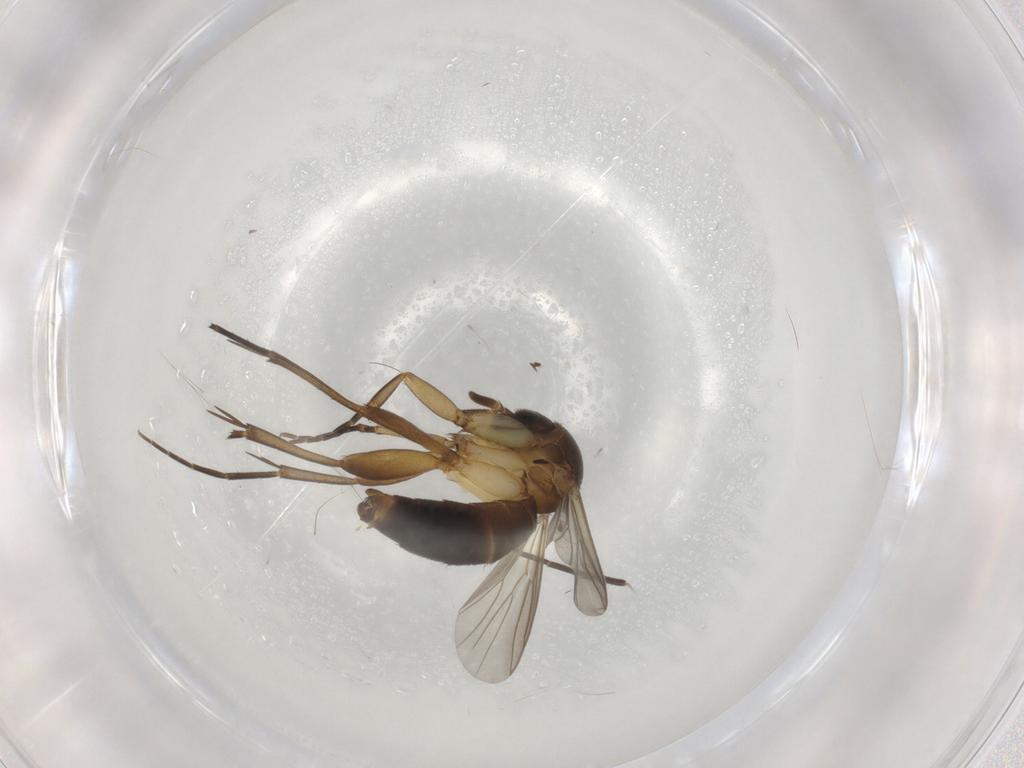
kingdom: Animalia
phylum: Arthropoda
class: Insecta
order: Diptera
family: Mycetophilidae
